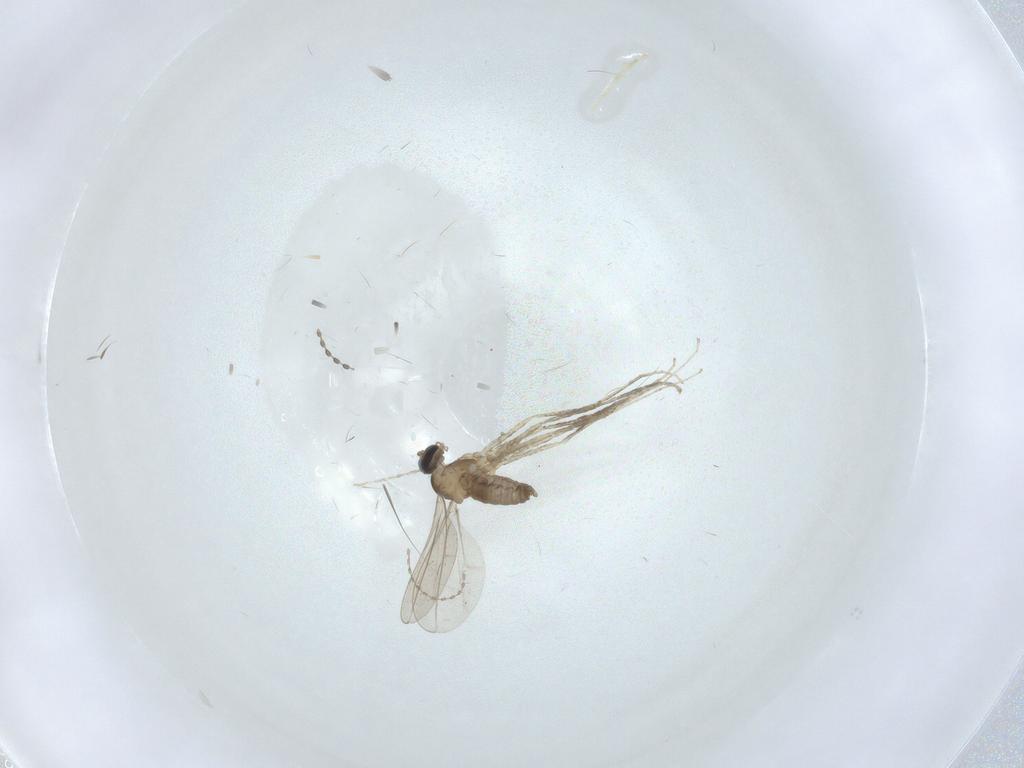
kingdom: Animalia
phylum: Arthropoda
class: Insecta
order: Diptera
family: Cecidomyiidae
